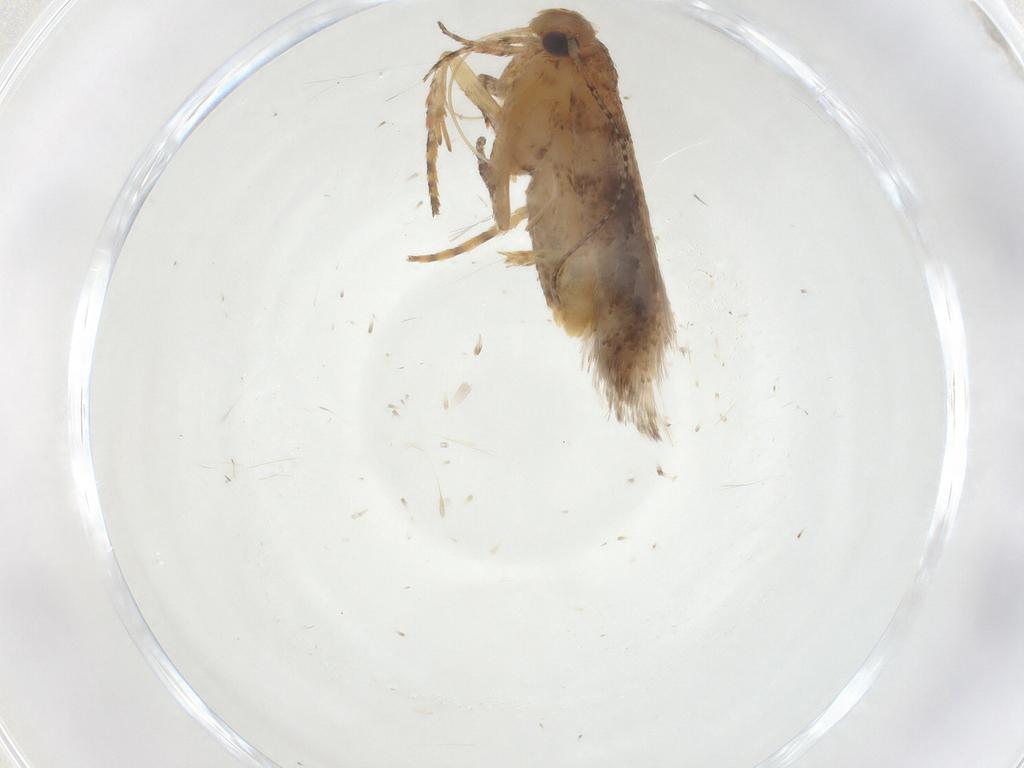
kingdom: Animalia
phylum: Arthropoda
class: Insecta
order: Lepidoptera
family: Gelechiidae
